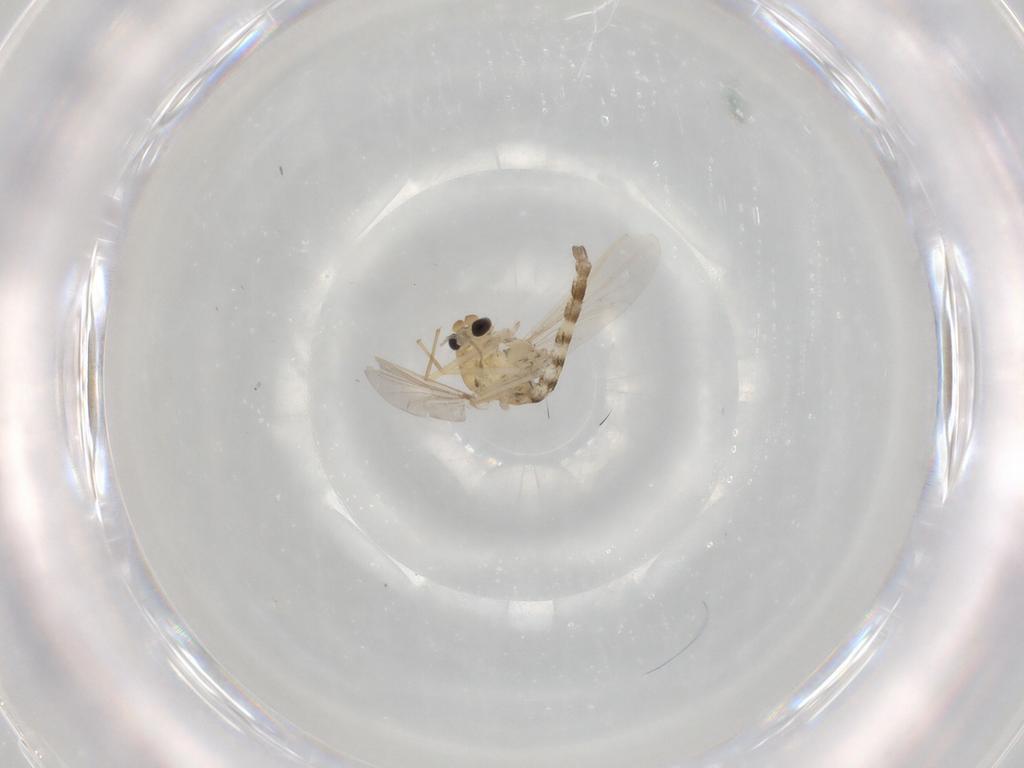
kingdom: Animalia
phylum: Arthropoda
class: Insecta
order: Diptera
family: Chironomidae
